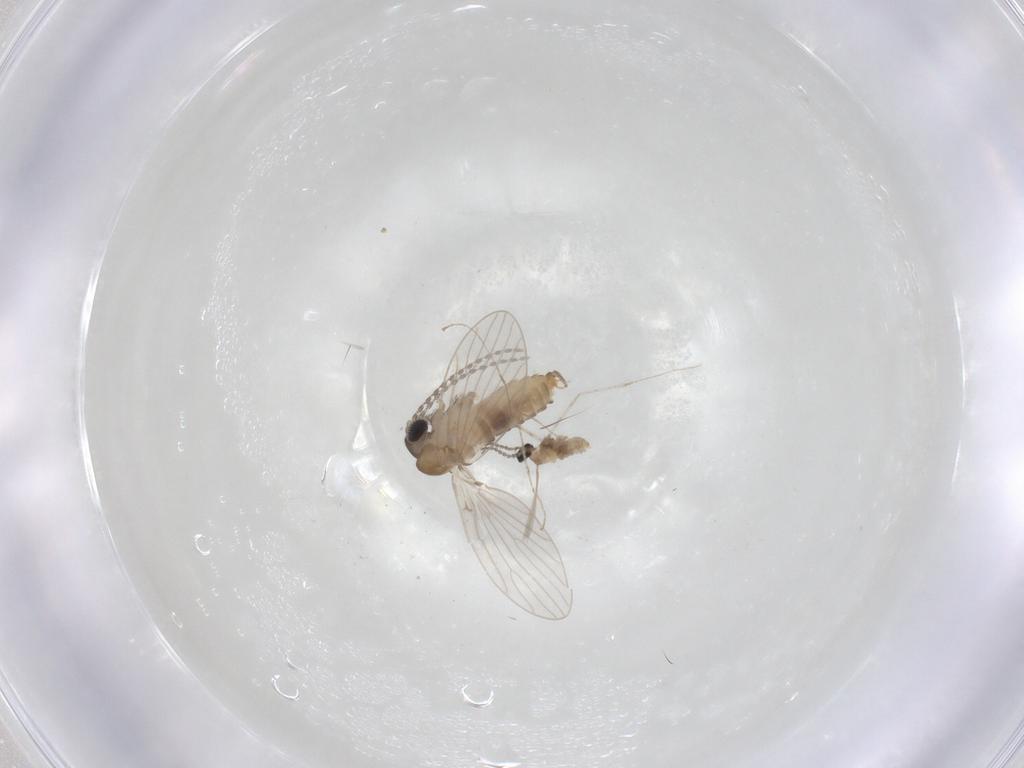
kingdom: Animalia
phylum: Arthropoda
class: Insecta
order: Diptera
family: Psychodidae
